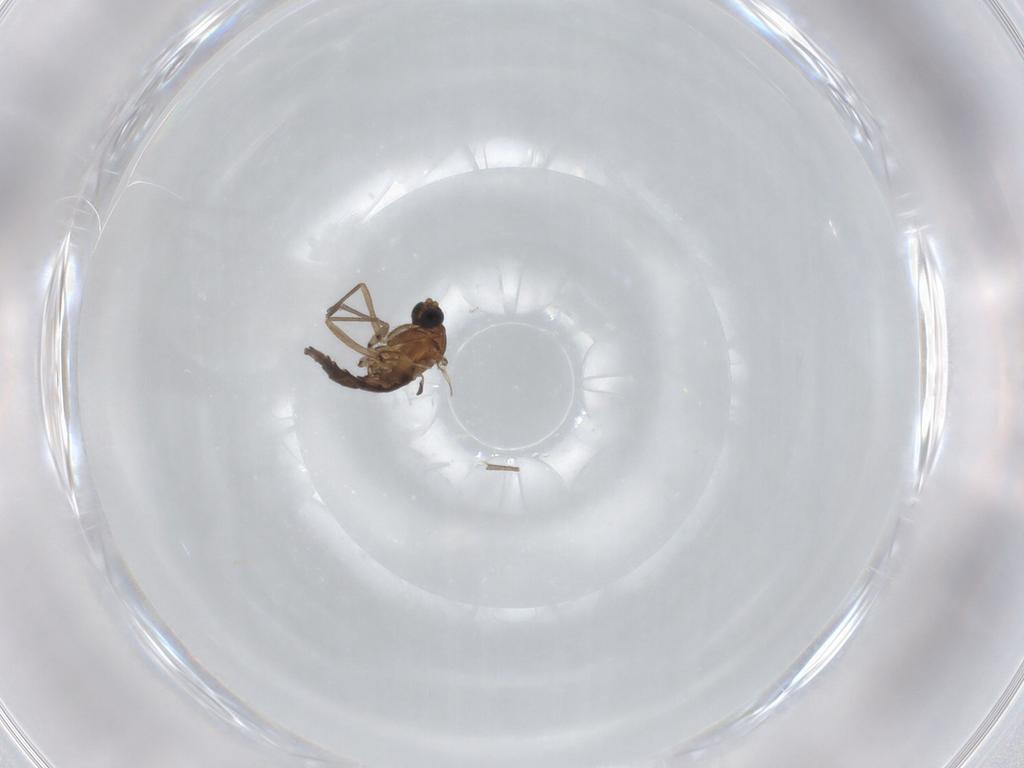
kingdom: Animalia
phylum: Arthropoda
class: Insecta
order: Diptera
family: Sciaridae
